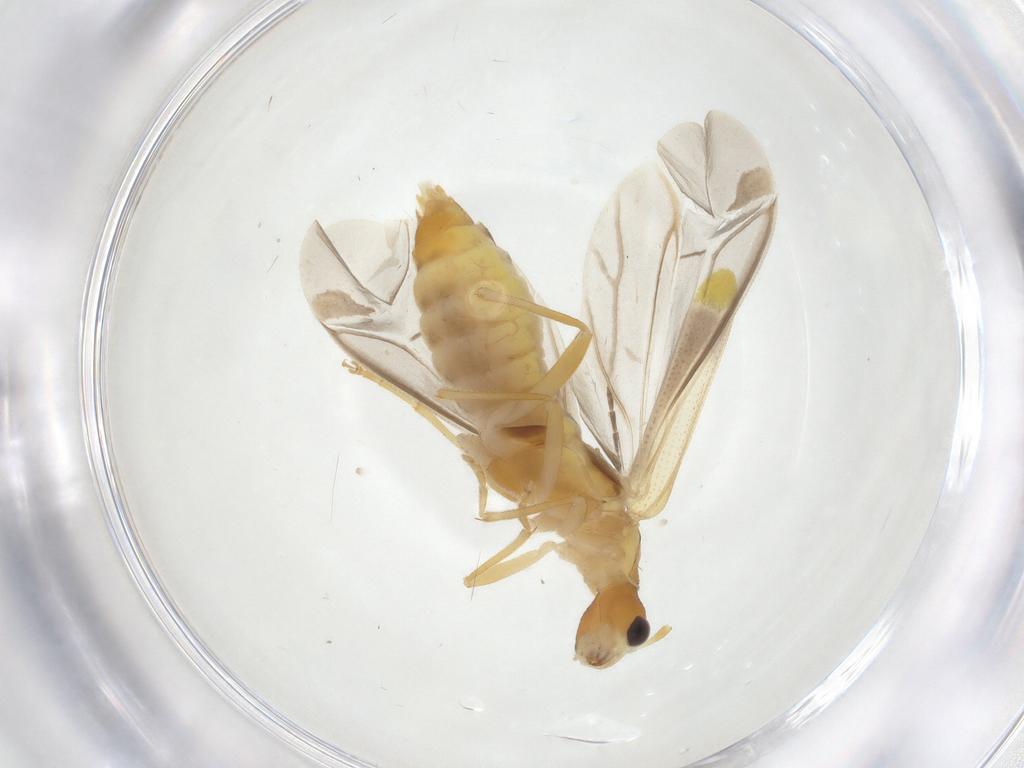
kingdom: Animalia
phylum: Arthropoda
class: Insecta
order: Coleoptera
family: Cantharidae
